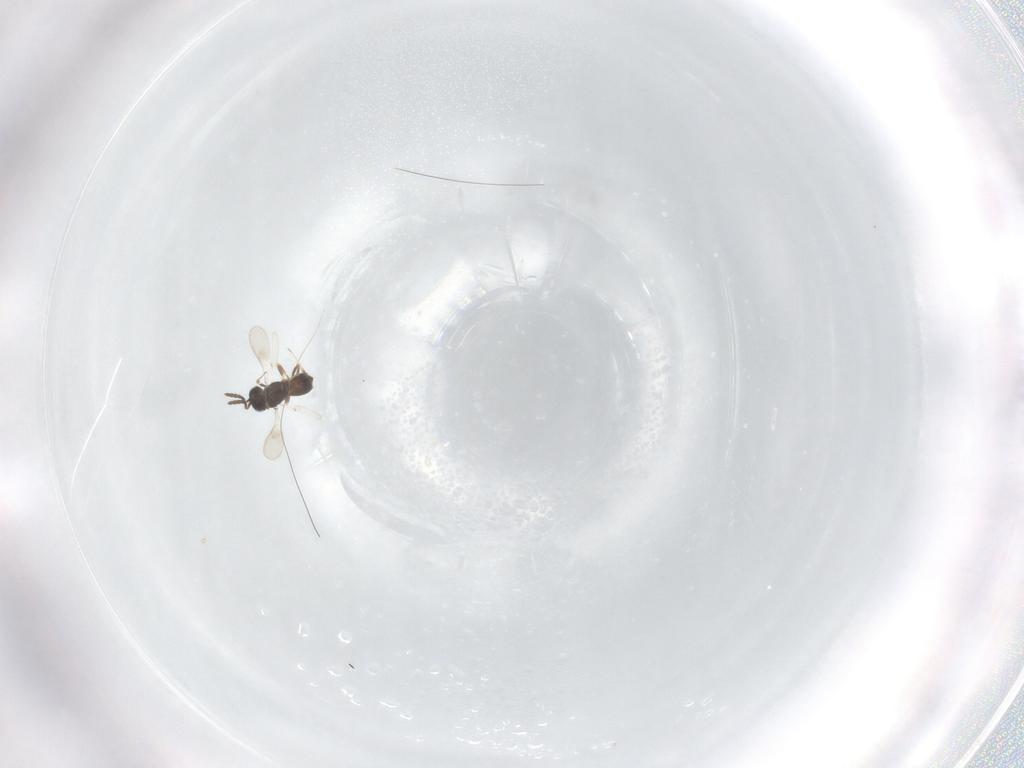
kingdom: Animalia
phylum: Arthropoda
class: Insecta
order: Hymenoptera
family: Scelionidae
